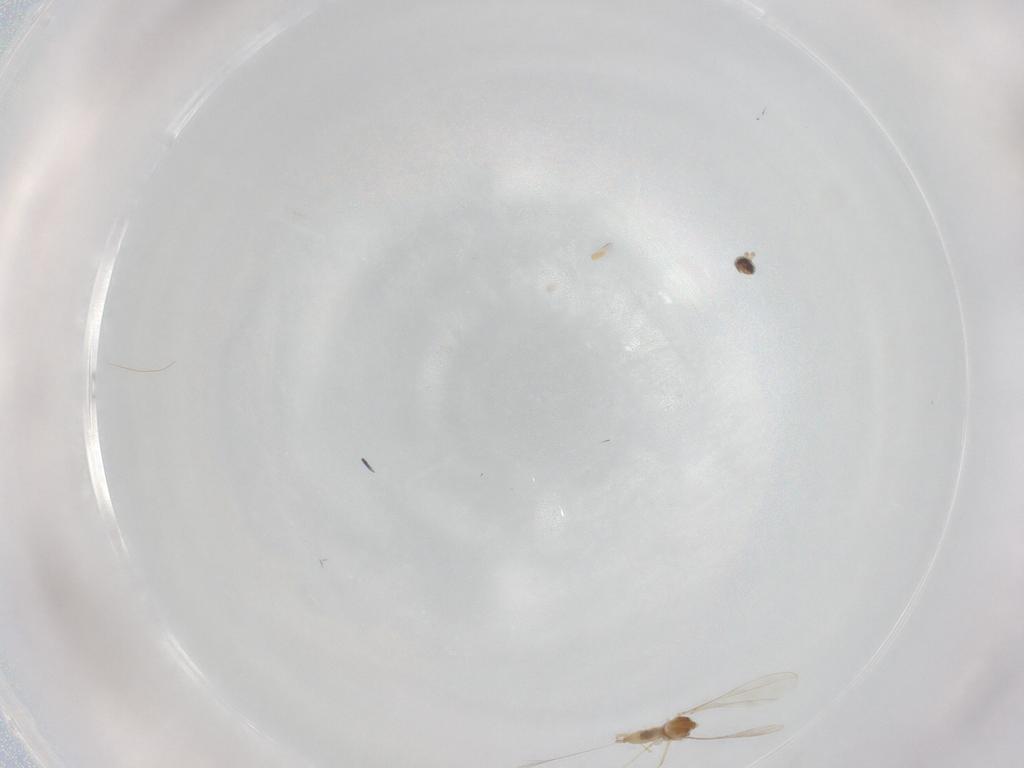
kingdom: Animalia
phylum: Arthropoda
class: Insecta
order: Diptera
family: Cecidomyiidae
